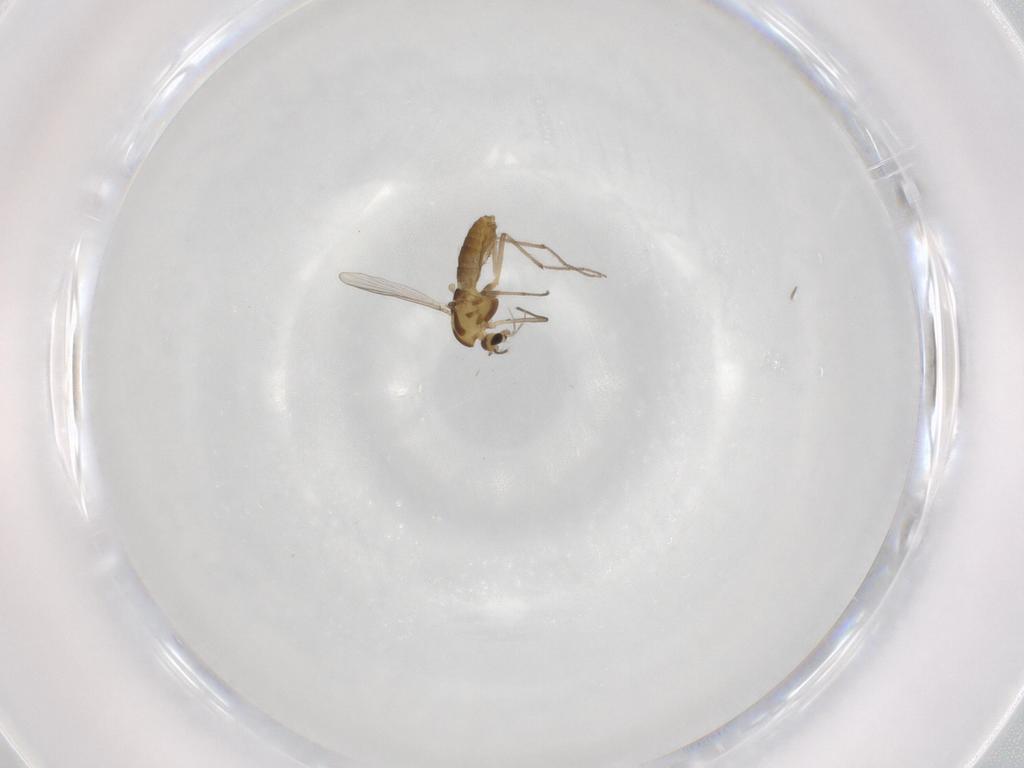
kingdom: Animalia
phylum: Arthropoda
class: Insecta
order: Diptera
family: Chironomidae
